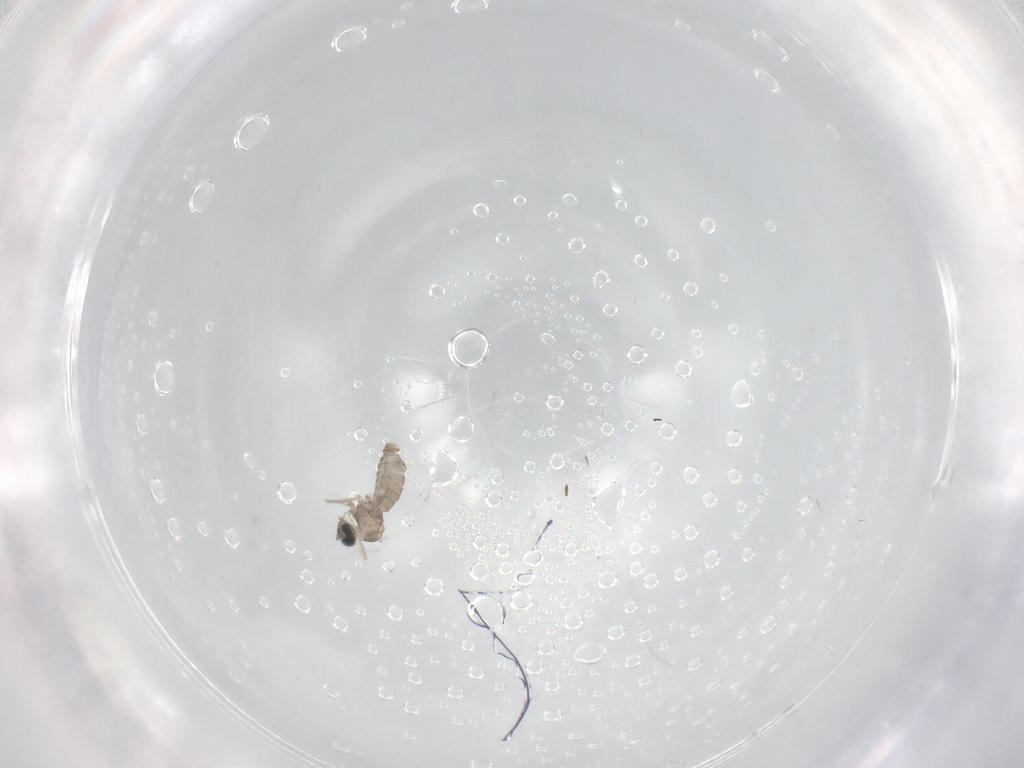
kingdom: Animalia
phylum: Arthropoda
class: Insecta
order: Diptera
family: Cecidomyiidae
